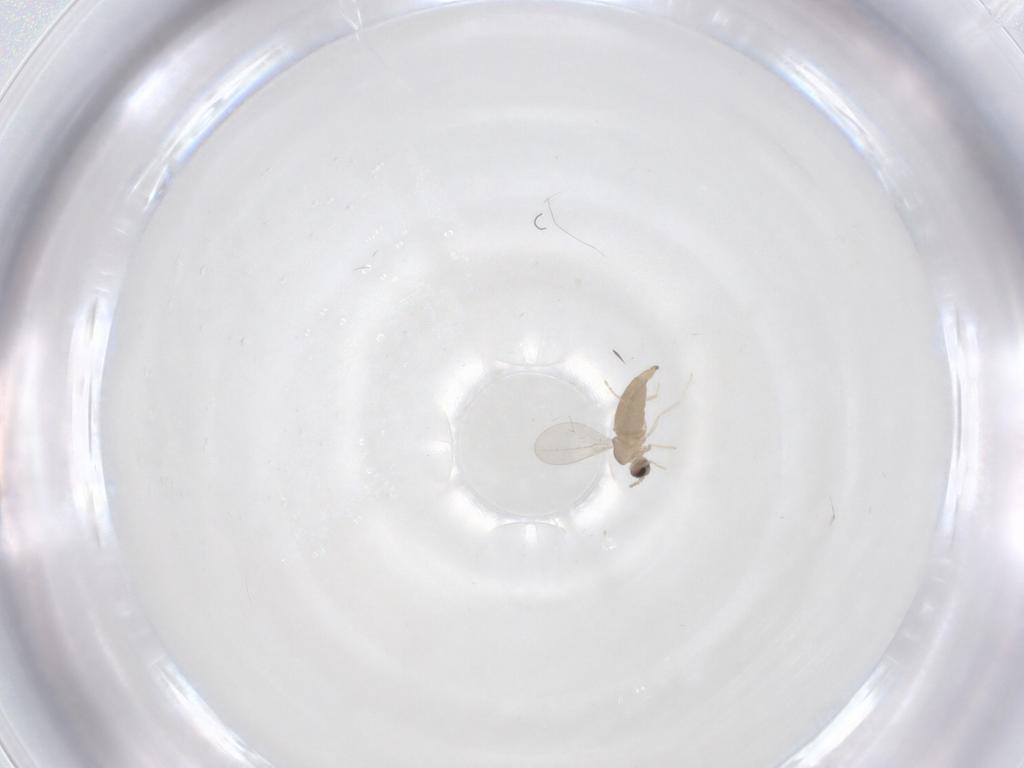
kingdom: Animalia
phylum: Arthropoda
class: Insecta
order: Diptera
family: Cecidomyiidae
